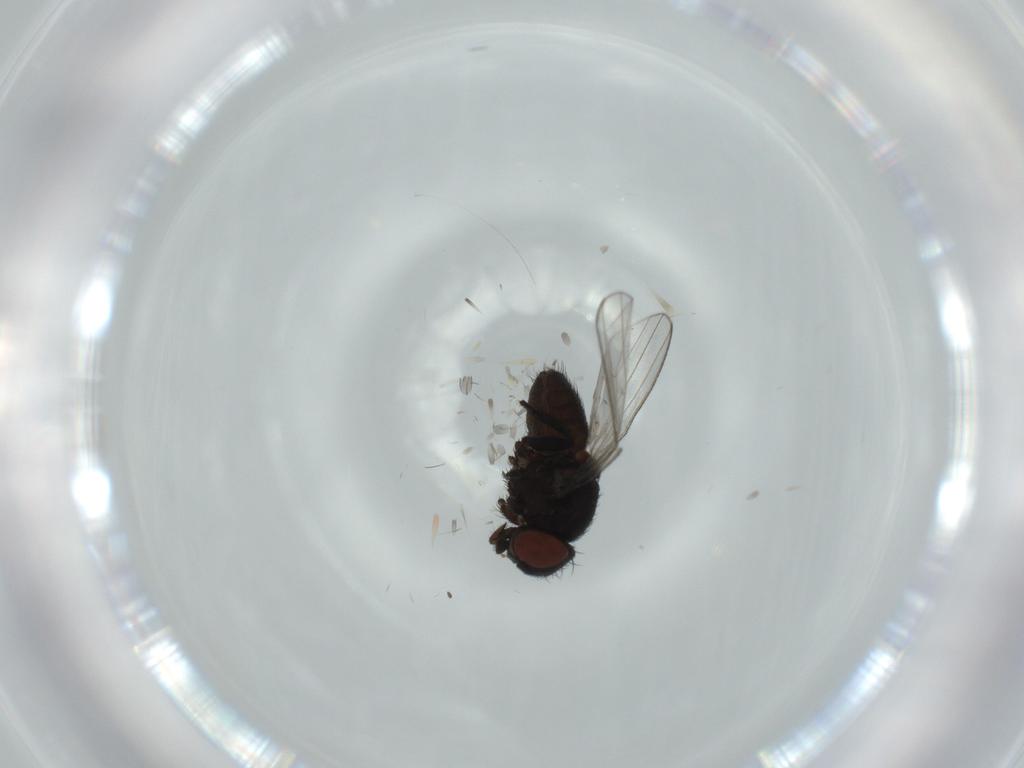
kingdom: Animalia
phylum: Arthropoda
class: Insecta
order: Diptera
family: Milichiidae
